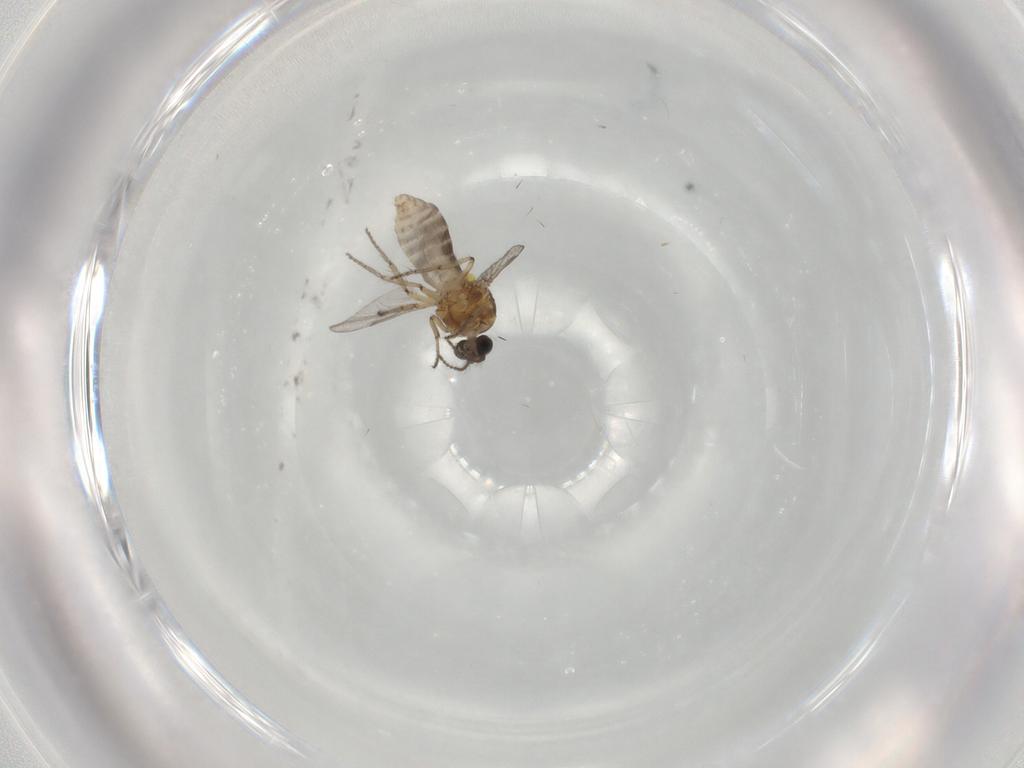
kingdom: Animalia
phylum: Arthropoda
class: Insecta
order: Diptera
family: Ceratopogonidae
